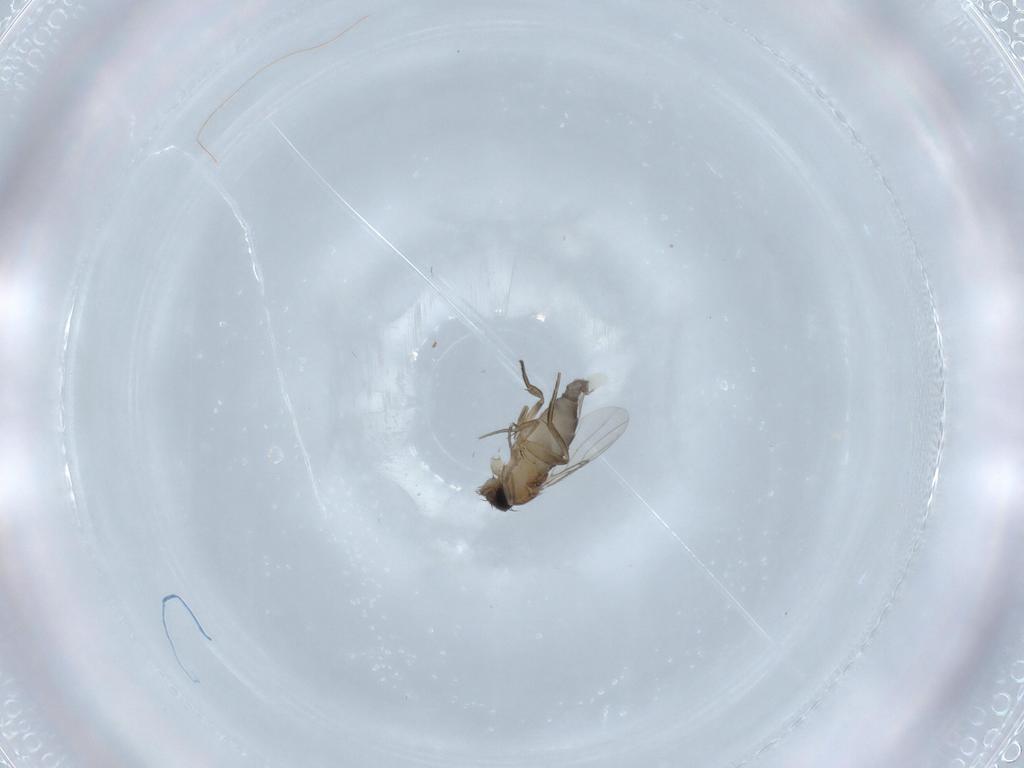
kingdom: Animalia
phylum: Arthropoda
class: Insecta
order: Diptera
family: Phoridae
